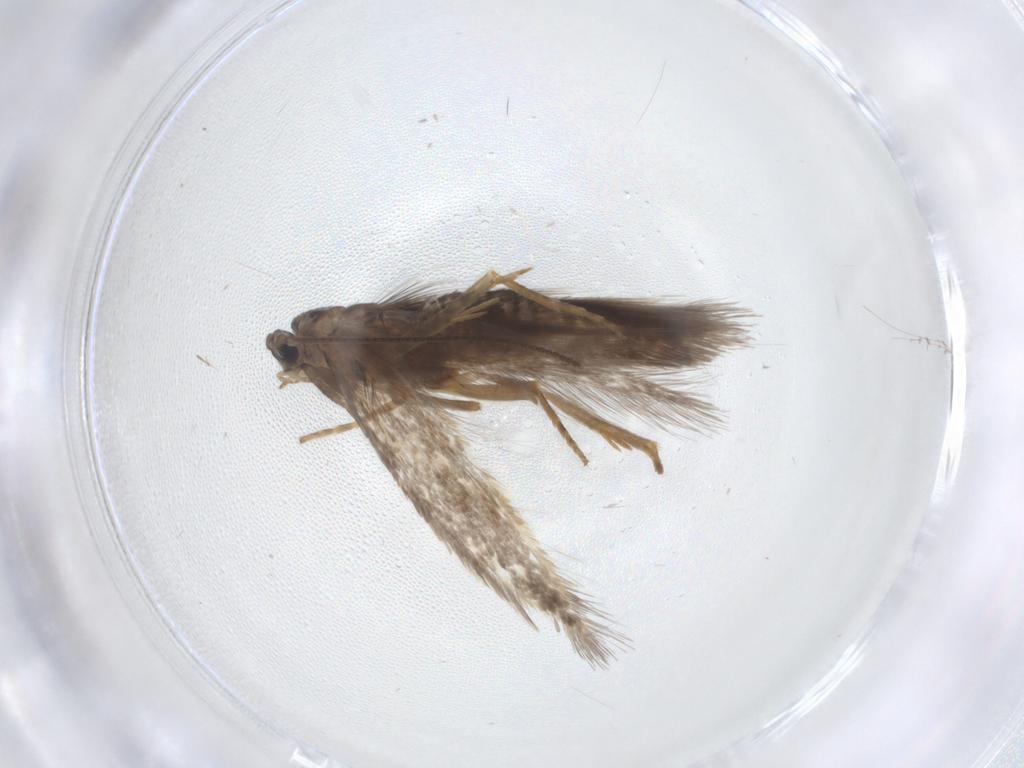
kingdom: Animalia
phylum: Arthropoda
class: Insecta
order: Lepidoptera
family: Nepticulidae
